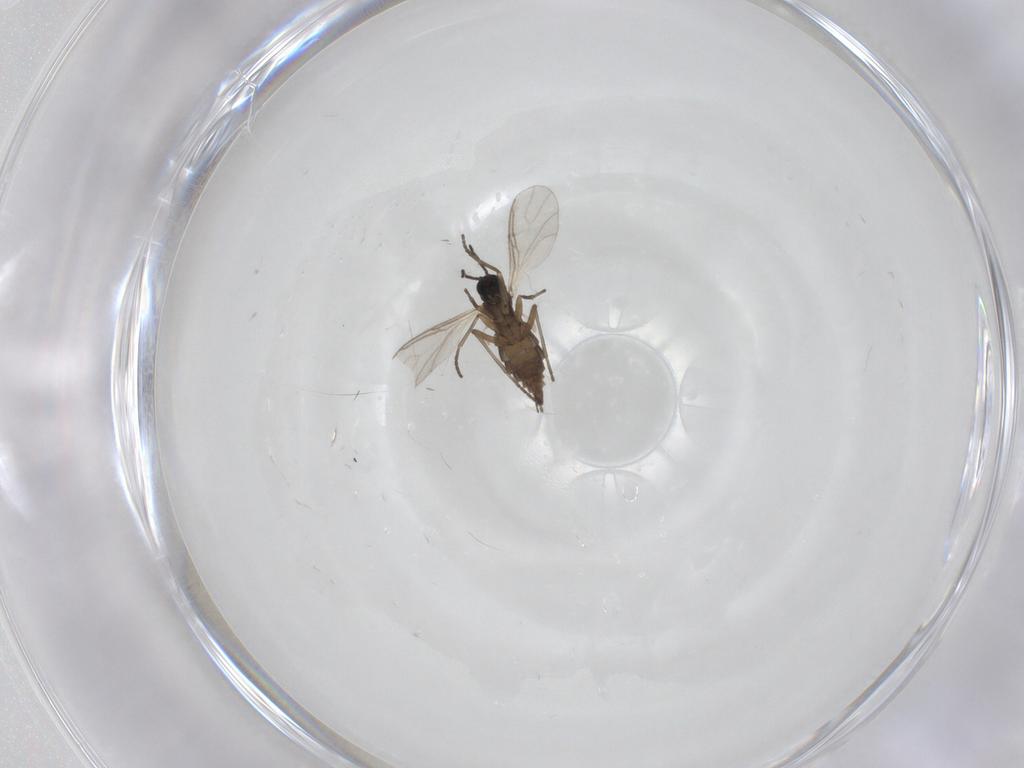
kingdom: Animalia
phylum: Arthropoda
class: Insecta
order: Diptera
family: Sciaridae
